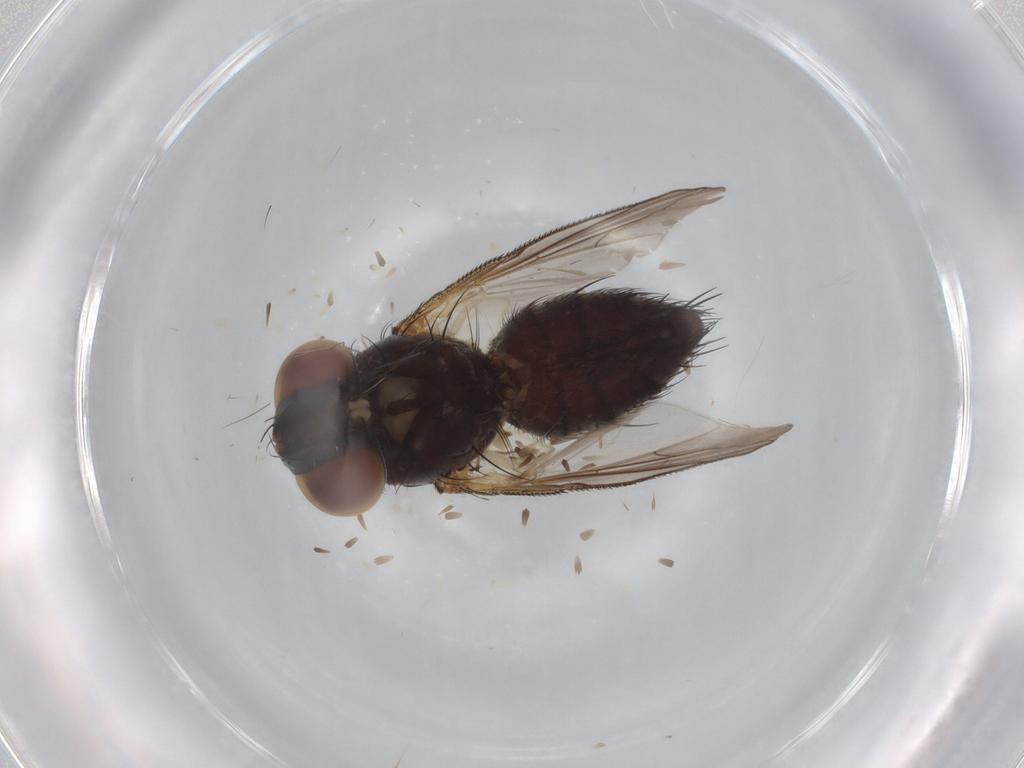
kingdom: Animalia
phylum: Arthropoda
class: Insecta
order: Diptera
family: Calliphoridae
